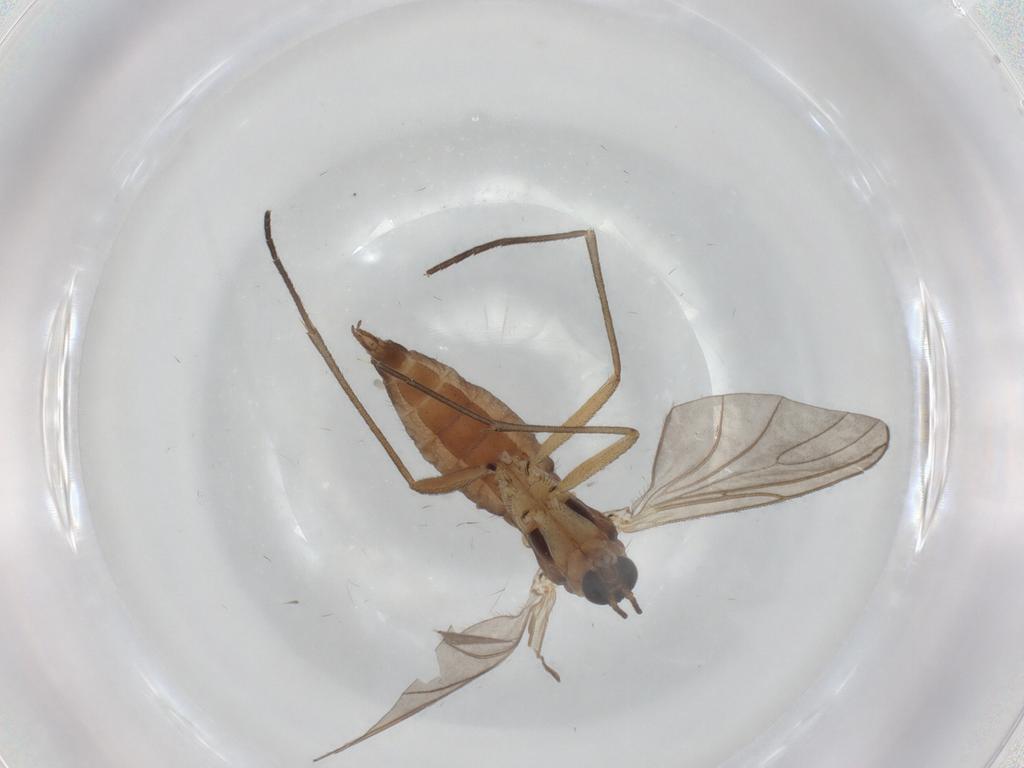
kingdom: Animalia
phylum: Arthropoda
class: Insecta
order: Diptera
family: Sciaridae
